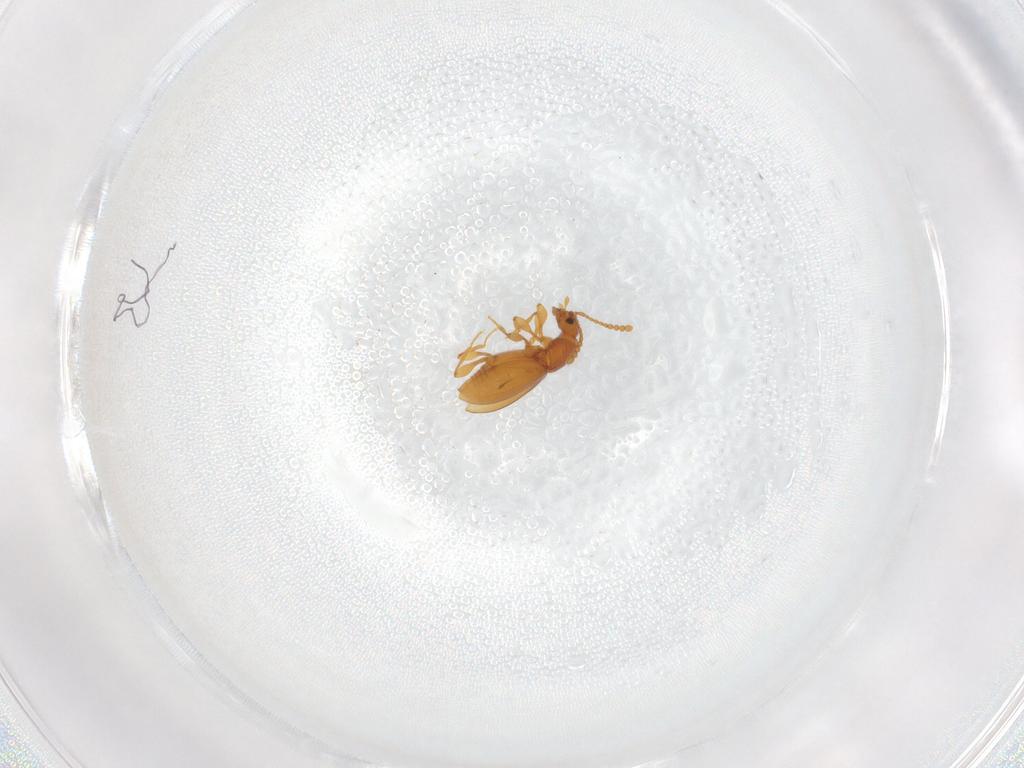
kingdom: Animalia
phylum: Arthropoda
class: Insecta
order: Coleoptera
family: Staphylinidae
